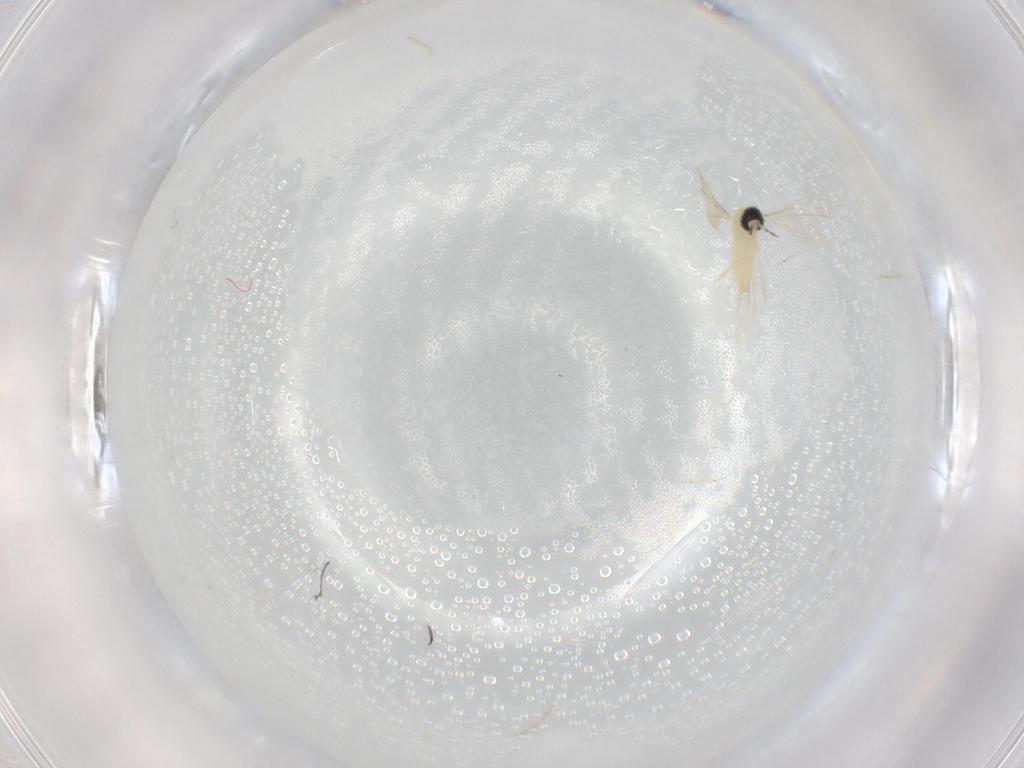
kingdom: Animalia
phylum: Arthropoda
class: Insecta
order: Diptera
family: Cecidomyiidae
